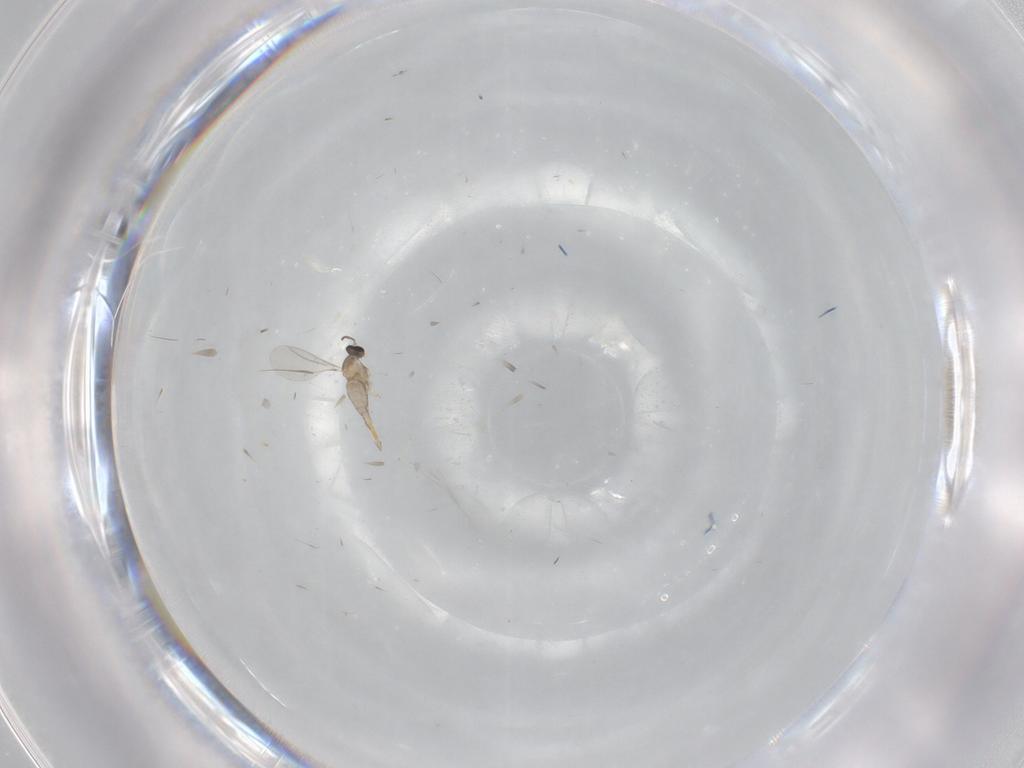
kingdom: Animalia
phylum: Arthropoda
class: Insecta
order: Diptera
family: Cecidomyiidae
